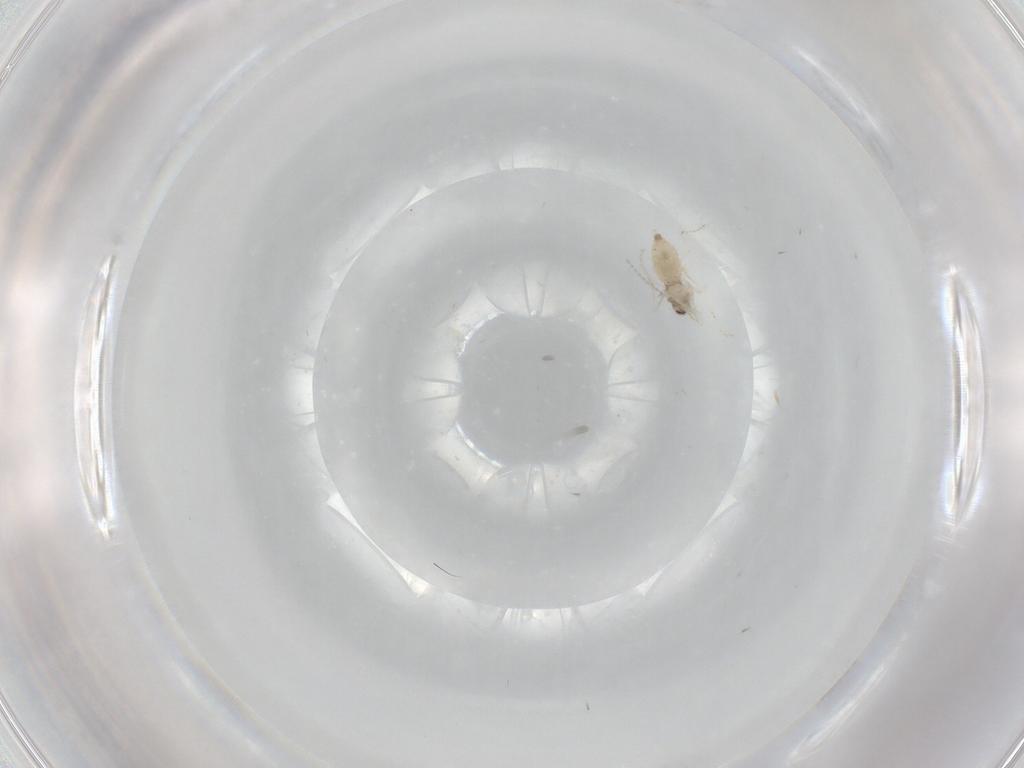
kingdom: Animalia
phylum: Arthropoda
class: Insecta
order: Diptera
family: Cecidomyiidae
